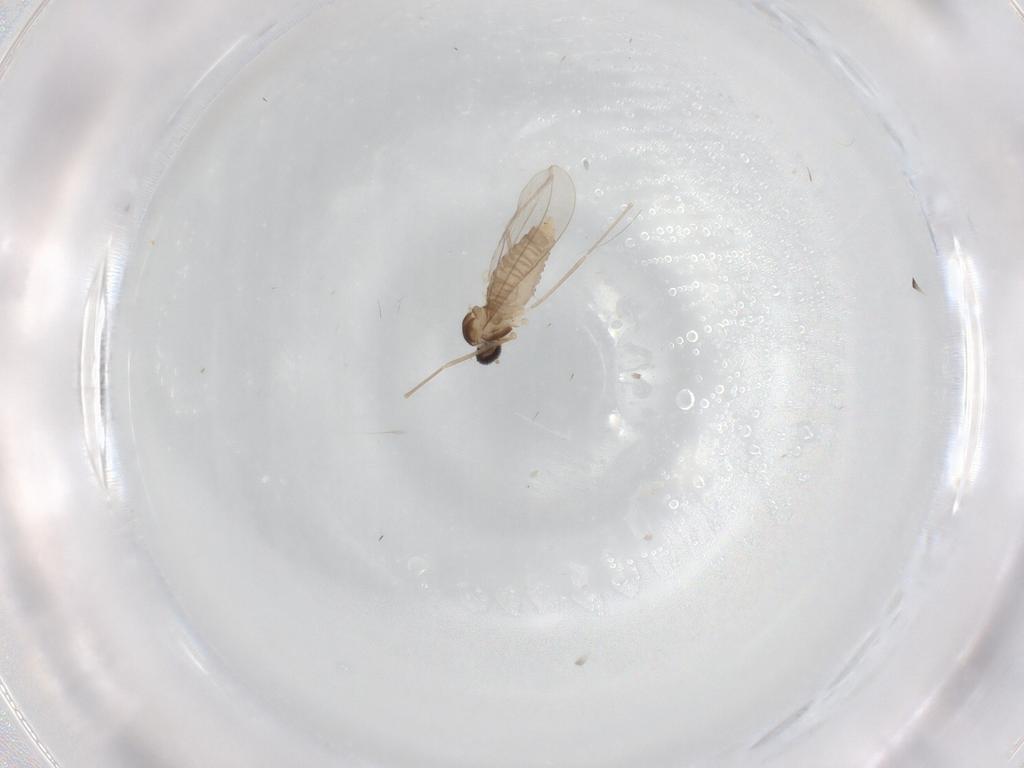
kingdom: Animalia
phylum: Arthropoda
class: Insecta
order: Diptera
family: Cecidomyiidae
